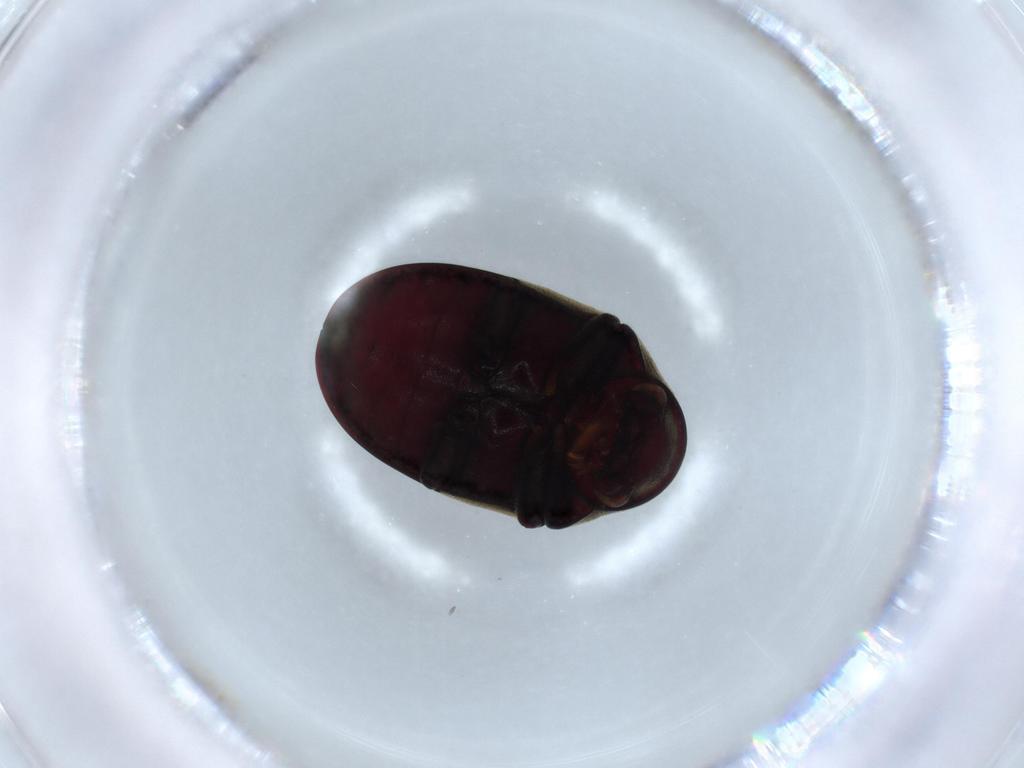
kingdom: Animalia
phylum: Arthropoda
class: Insecta
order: Coleoptera
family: Ptinidae
